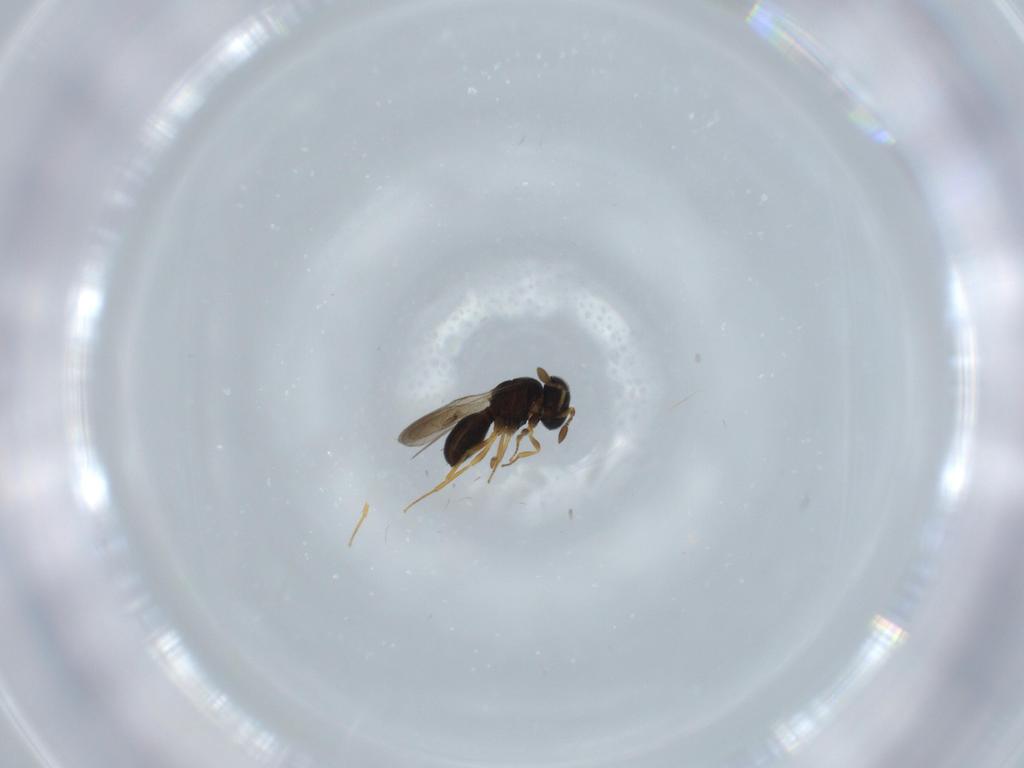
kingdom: Animalia
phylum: Arthropoda
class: Insecta
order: Hymenoptera
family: Scelionidae
